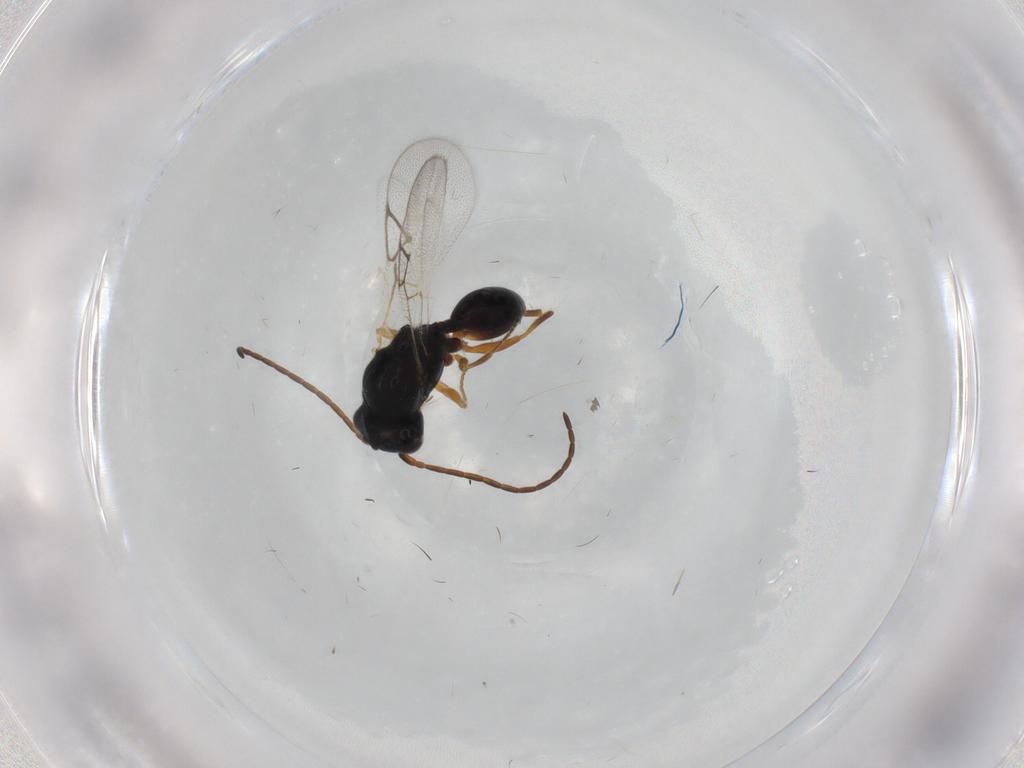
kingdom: Animalia
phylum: Arthropoda
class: Insecta
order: Hymenoptera
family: Figitidae
